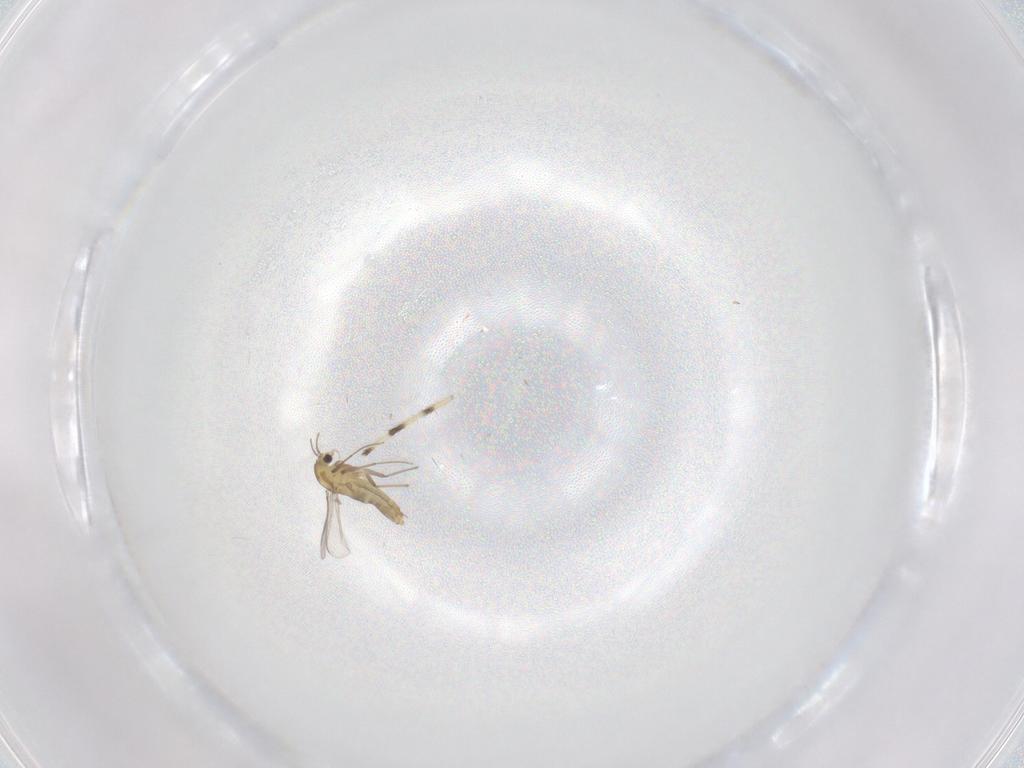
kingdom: Animalia
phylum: Arthropoda
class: Insecta
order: Diptera
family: Chironomidae
